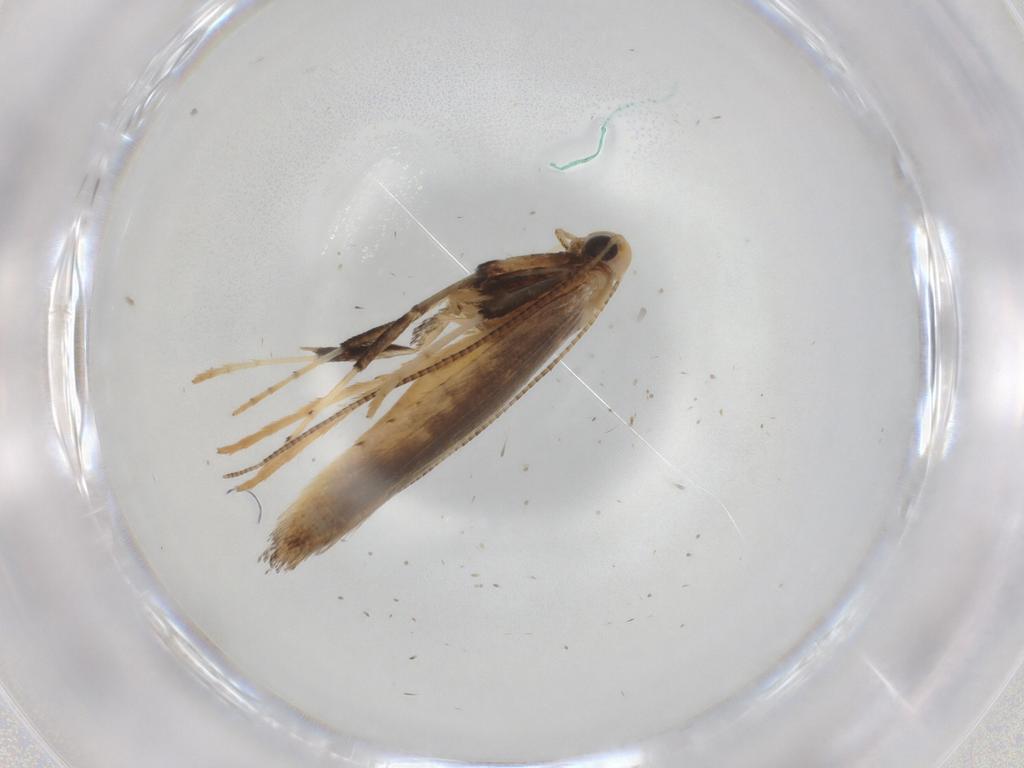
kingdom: Animalia
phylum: Arthropoda
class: Insecta
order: Lepidoptera
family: Gracillariidae
